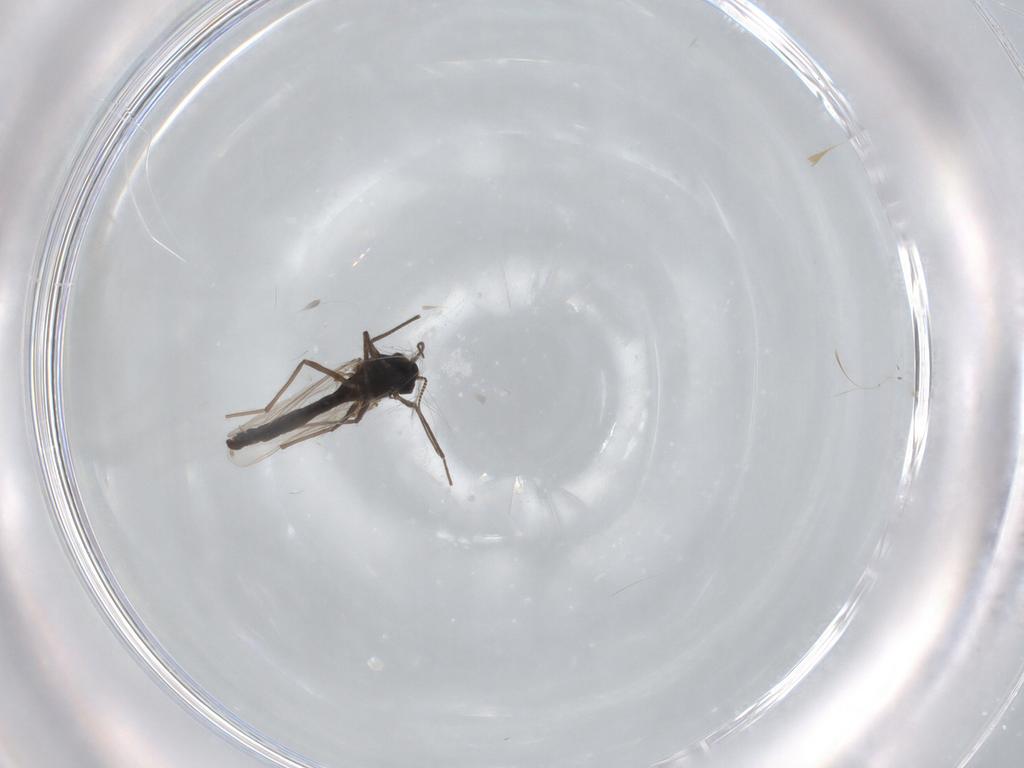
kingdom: Animalia
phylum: Arthropoda
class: Insecta
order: Diptera
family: Chironomidae
